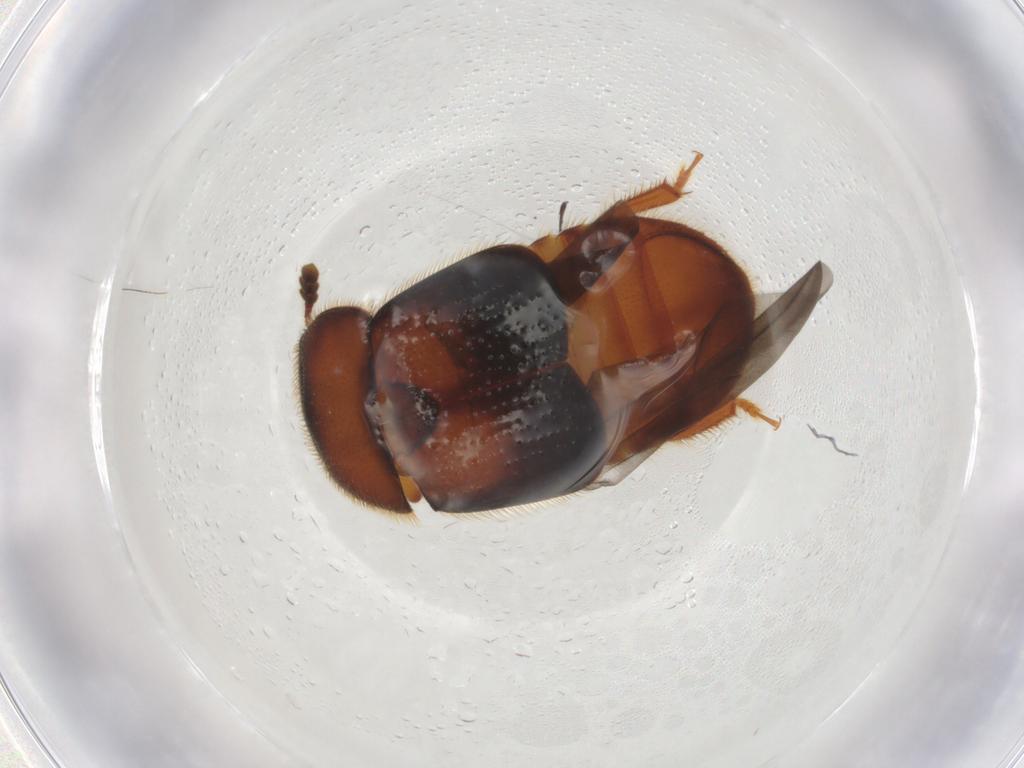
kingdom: Animalia
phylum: Arthropoda
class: Insecta
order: Coleoptera
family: Nitidulidae
